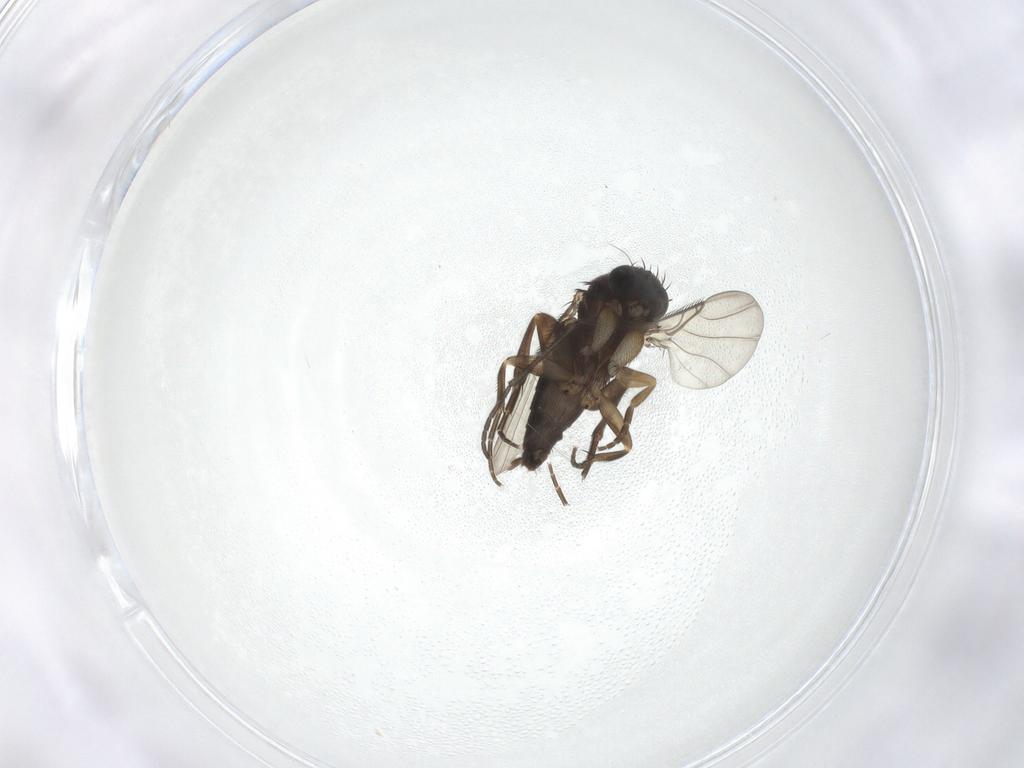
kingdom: Animalia
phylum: Arthropoda
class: Insecta
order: Diptera
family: Phoridae
